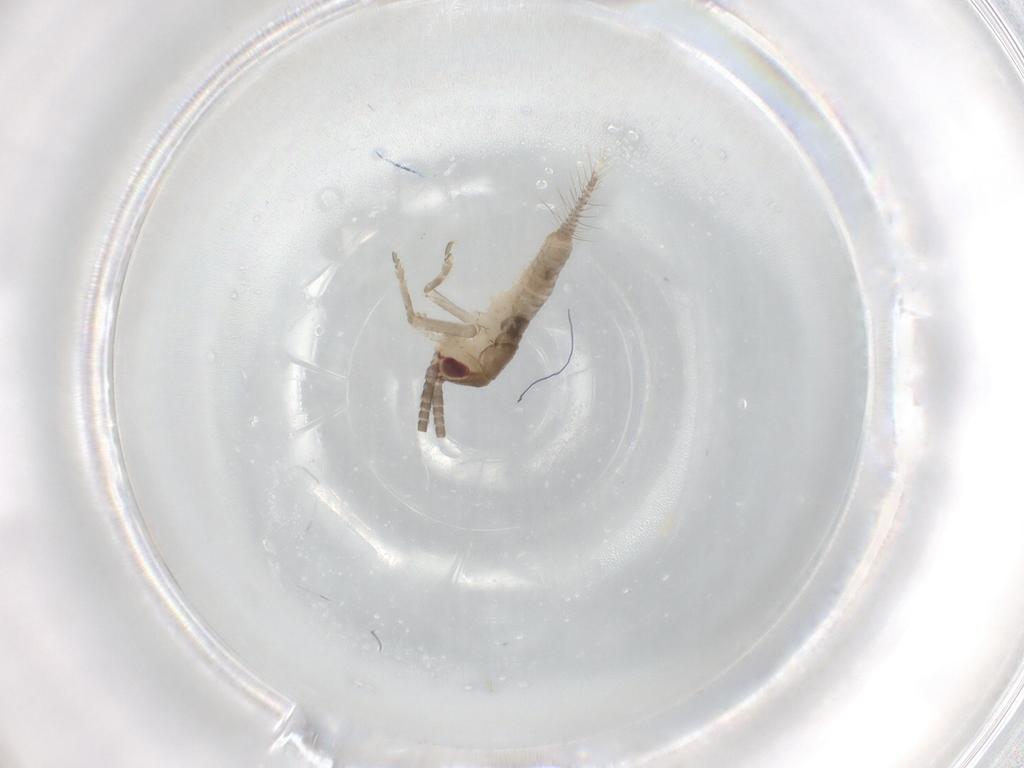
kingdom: Animalia
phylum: Arthropoda
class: Insecta
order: Orthoptera
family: Gryllidae
